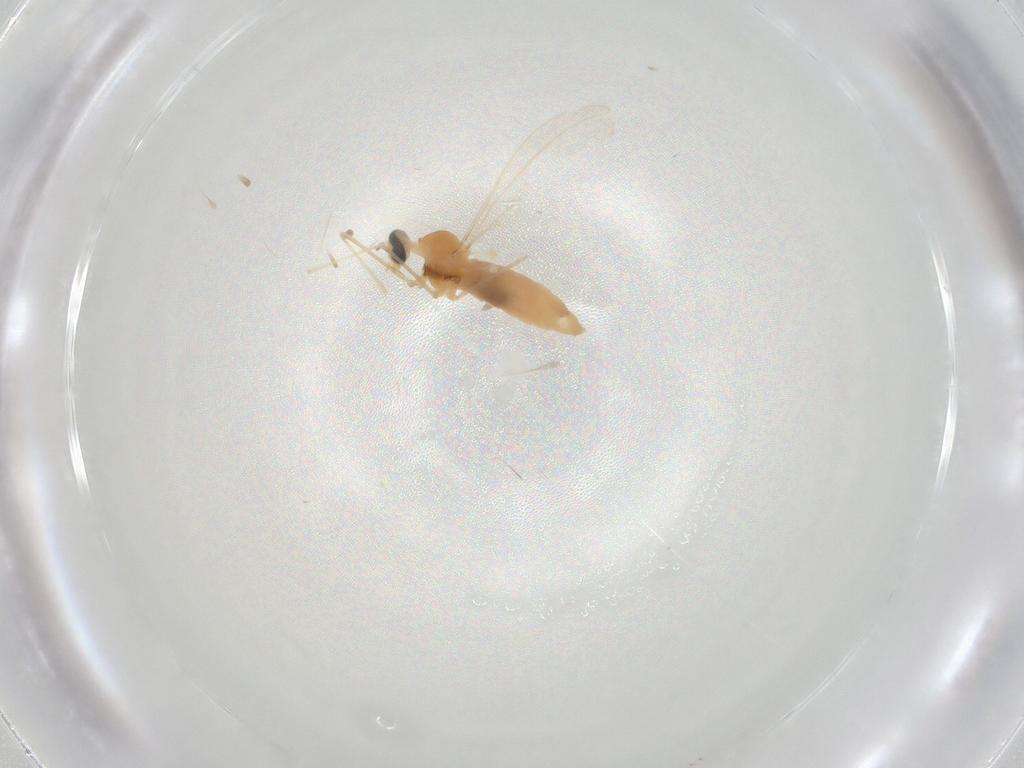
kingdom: Animalia
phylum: Arthropoda
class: Insecta
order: Diptera
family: Cecidomyiidae
